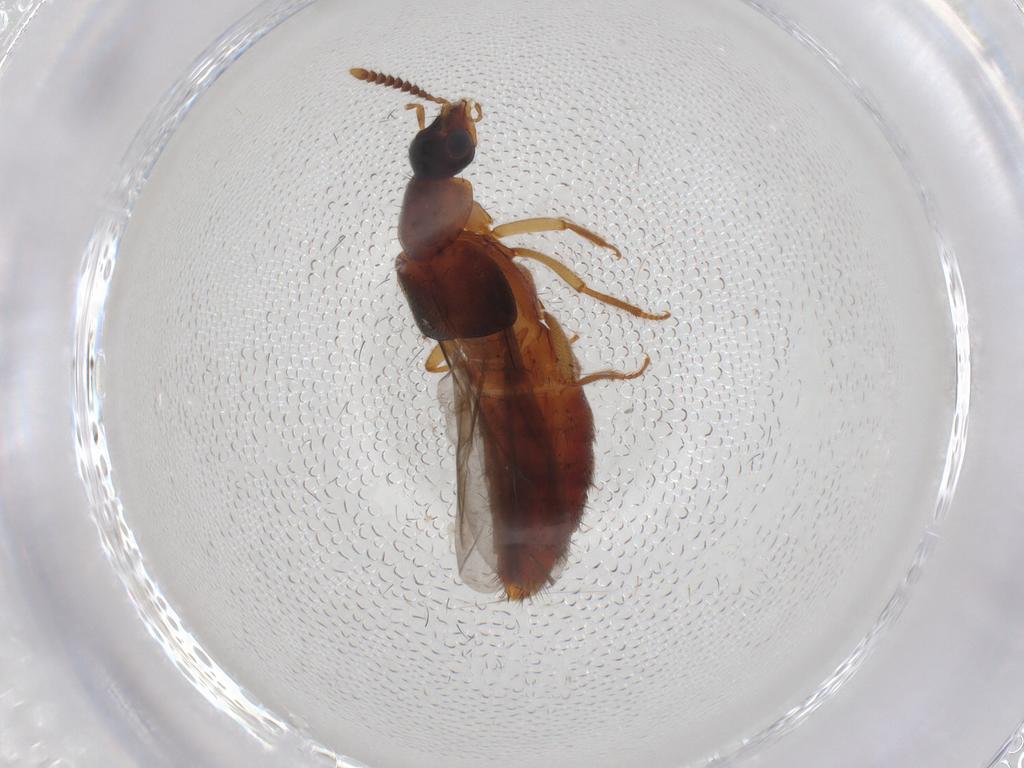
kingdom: Animalia
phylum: Arthropoda
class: Insecta
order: Coleoptera
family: Staphylinidae
